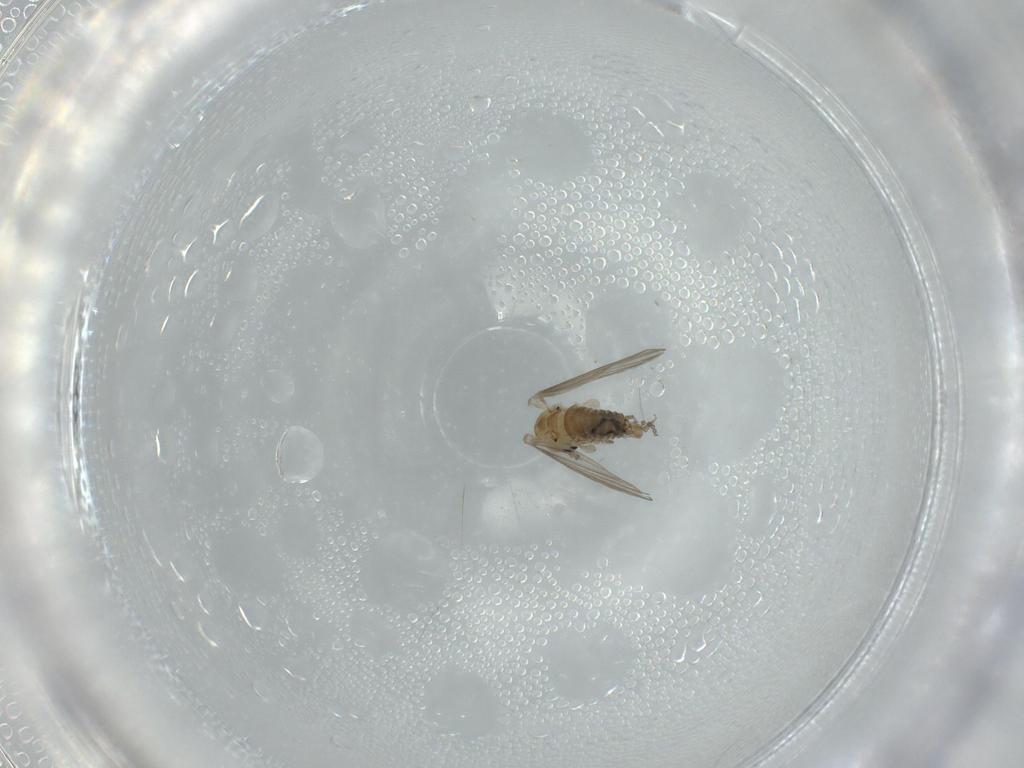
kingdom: Animalia
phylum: Arthropoda
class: Insecta
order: Diptera
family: Psychodidae
